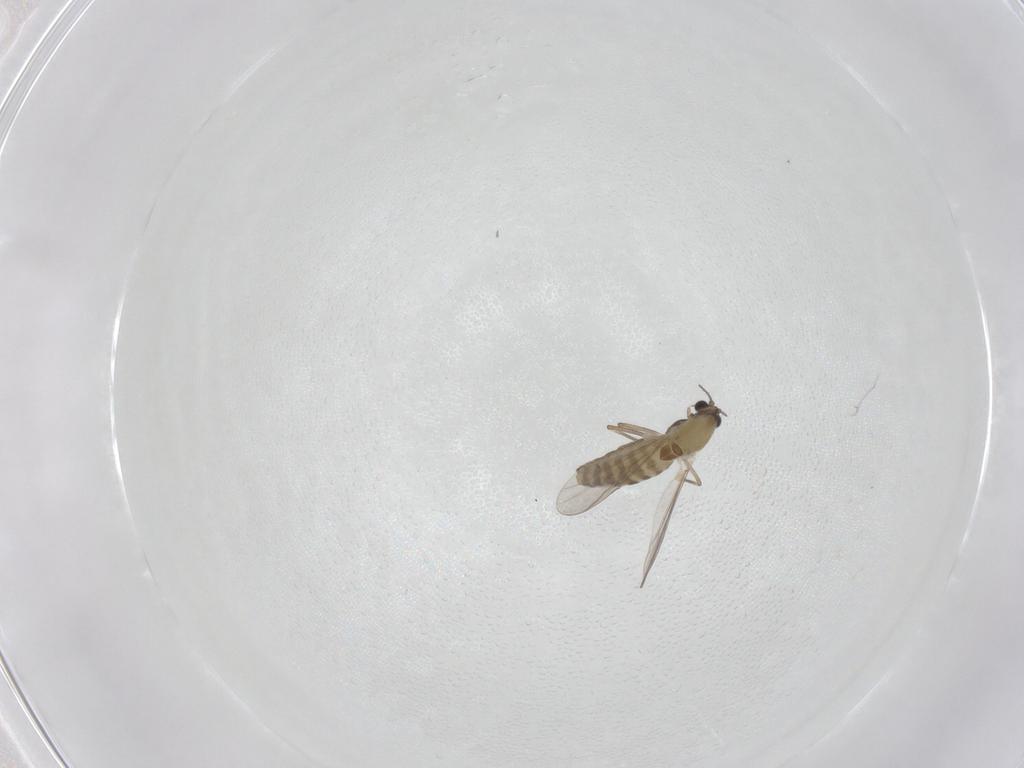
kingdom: Animalia
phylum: Arthropoda
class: Insecta
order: Diptera
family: Chironomidae
